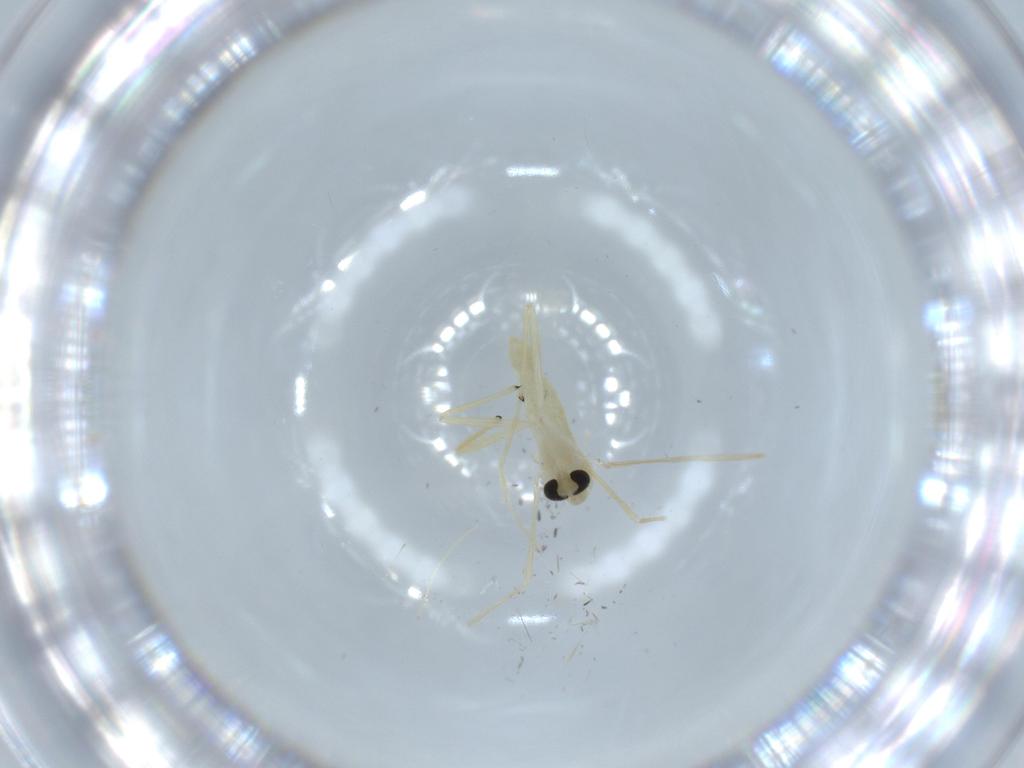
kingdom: Animalia
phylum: Arthropoda
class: Insecta
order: Diptera
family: Chironomidae
